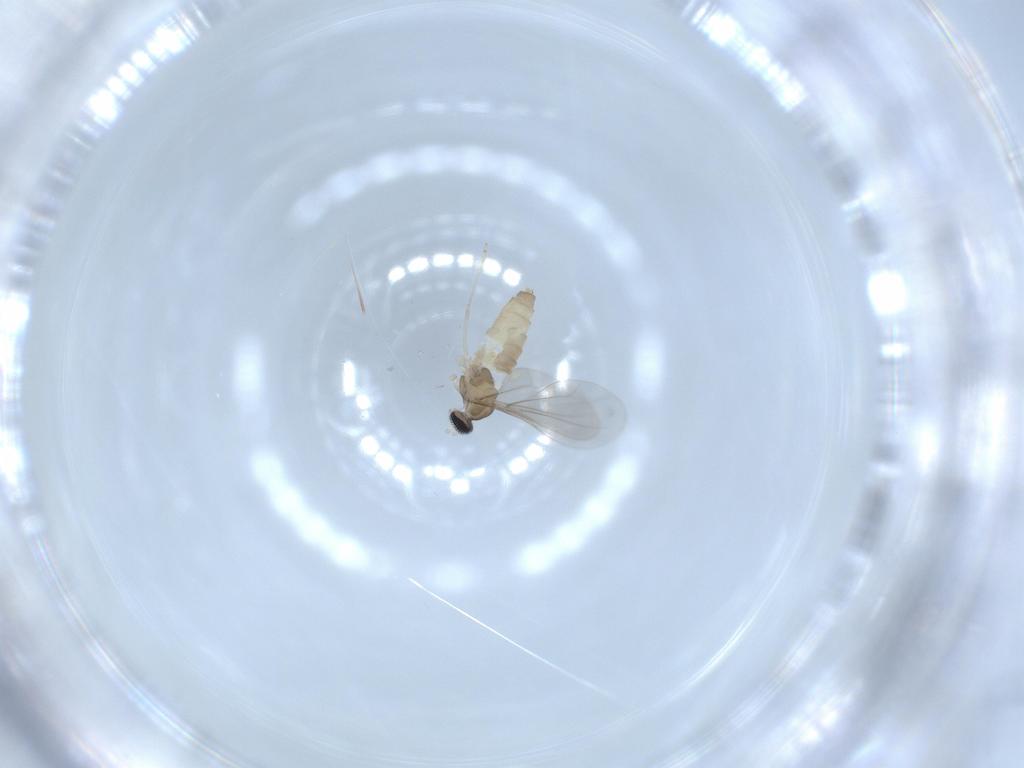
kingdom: Animalia
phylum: Arthropoda
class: Insecta
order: Diptera
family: Cecidomyiidae
